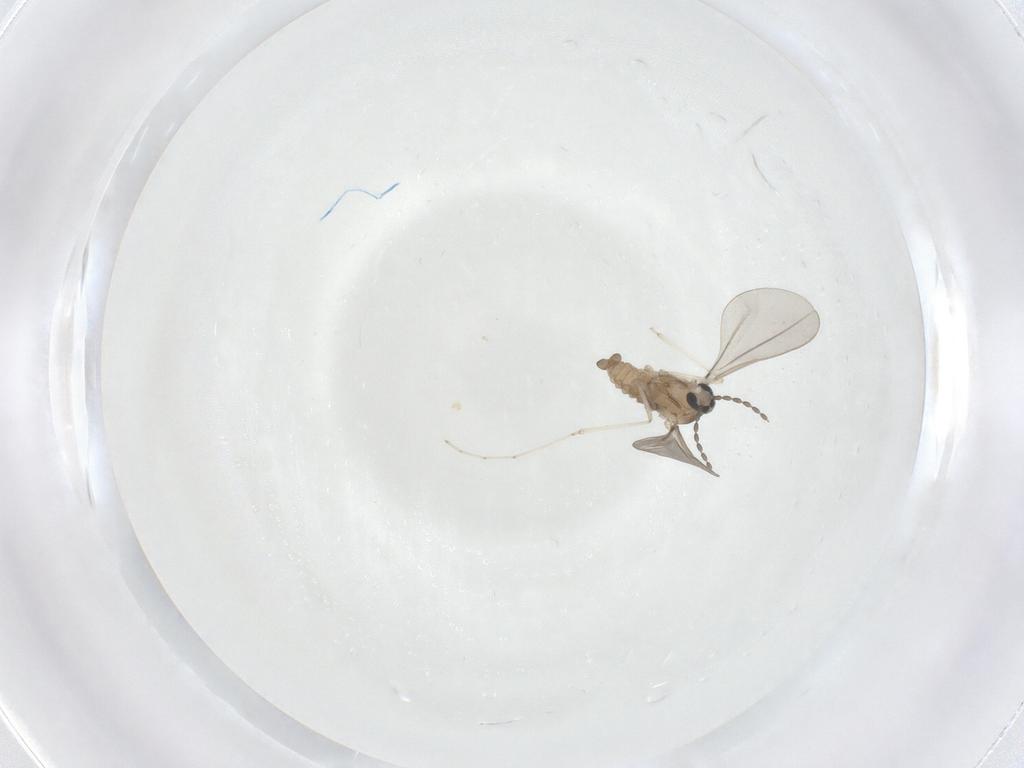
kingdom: Animalia
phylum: Arthropoda
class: Insecta
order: Diptera
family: Cecidomyiidae
